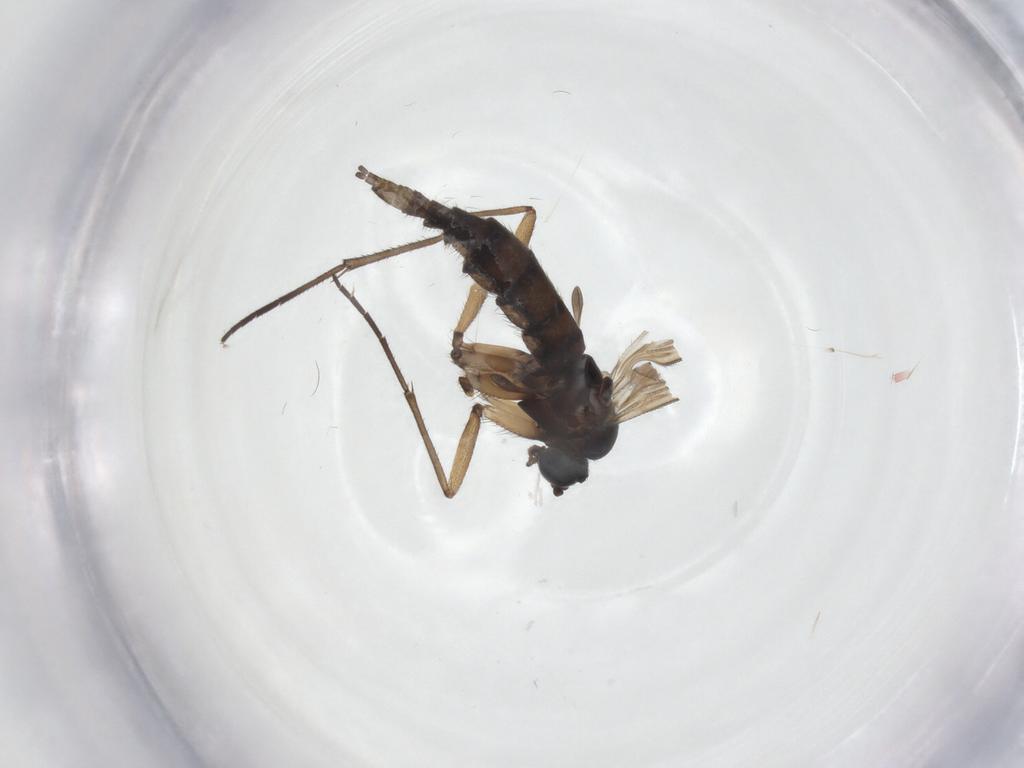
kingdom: Animalia
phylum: Arthropoda
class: Insecta
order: Diptera
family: Sciaridae
